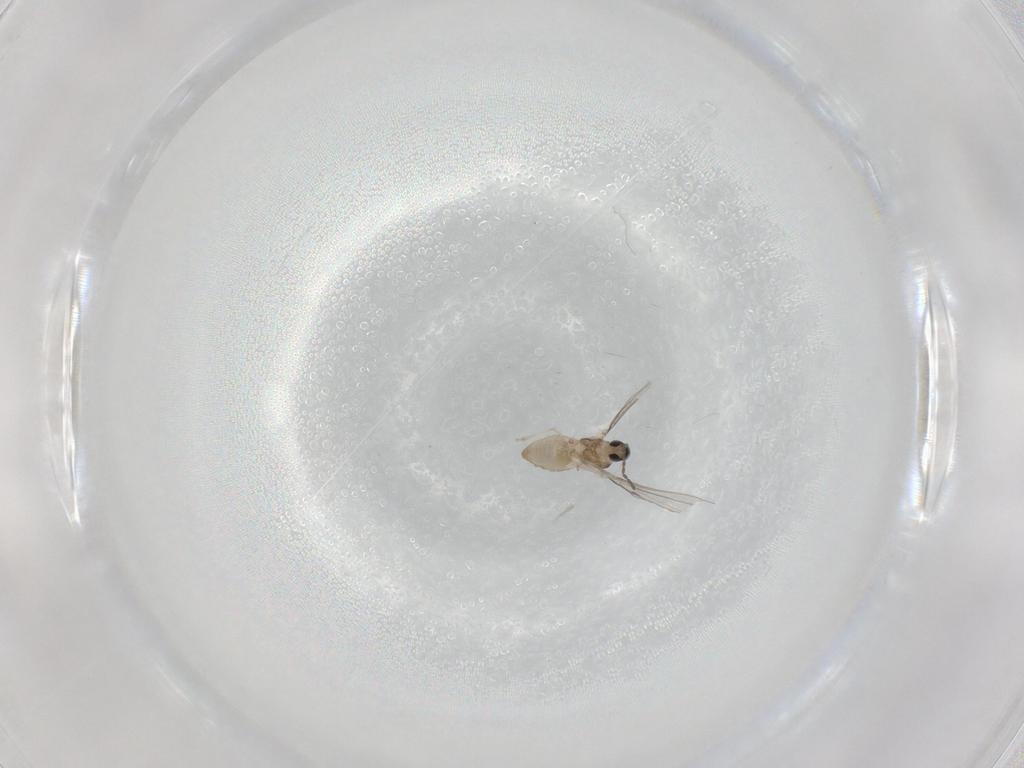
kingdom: Animalia
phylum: Arthropoda
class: Insecta
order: Diptera
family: Cecidomyiidae
